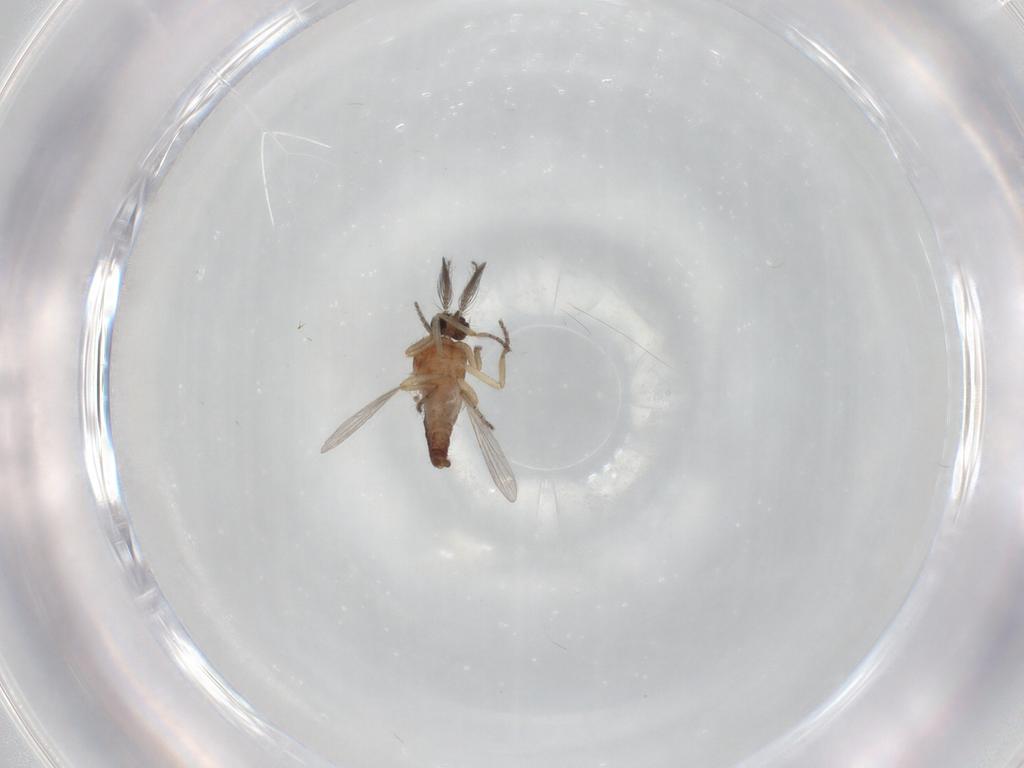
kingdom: Animalia
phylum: Arthropoda
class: Insecta
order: Diptera
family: Ceratopogonidae
